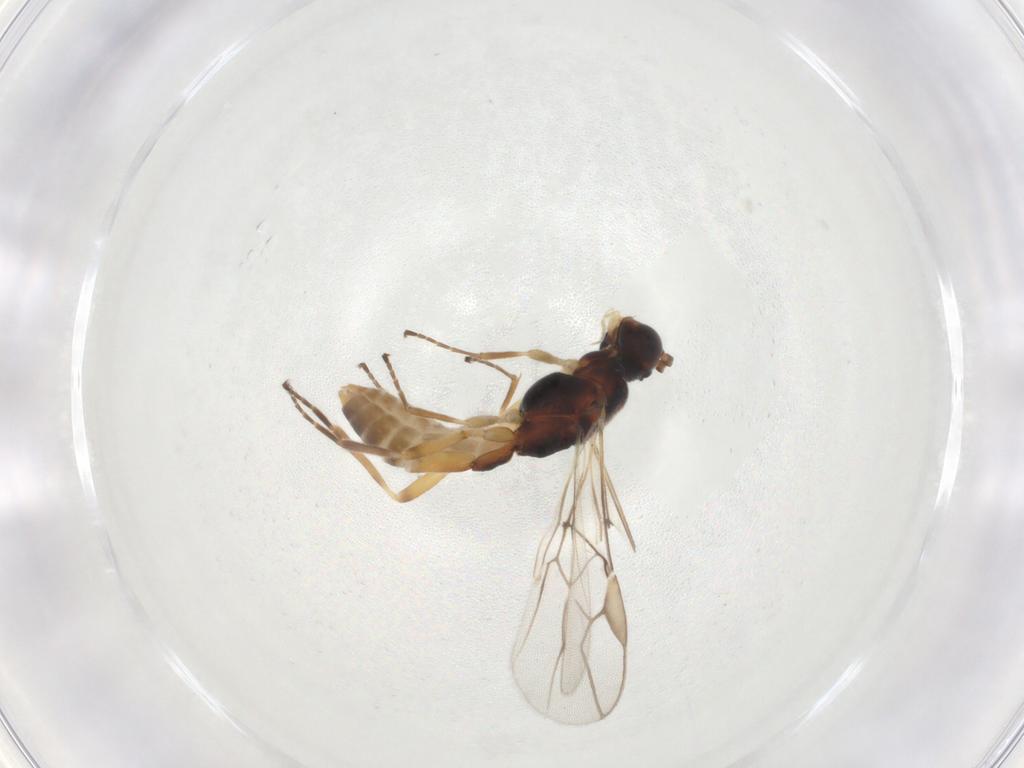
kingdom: Animalia
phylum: Arthropoda
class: Insecta
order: Hymenoptera
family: Braconidae
